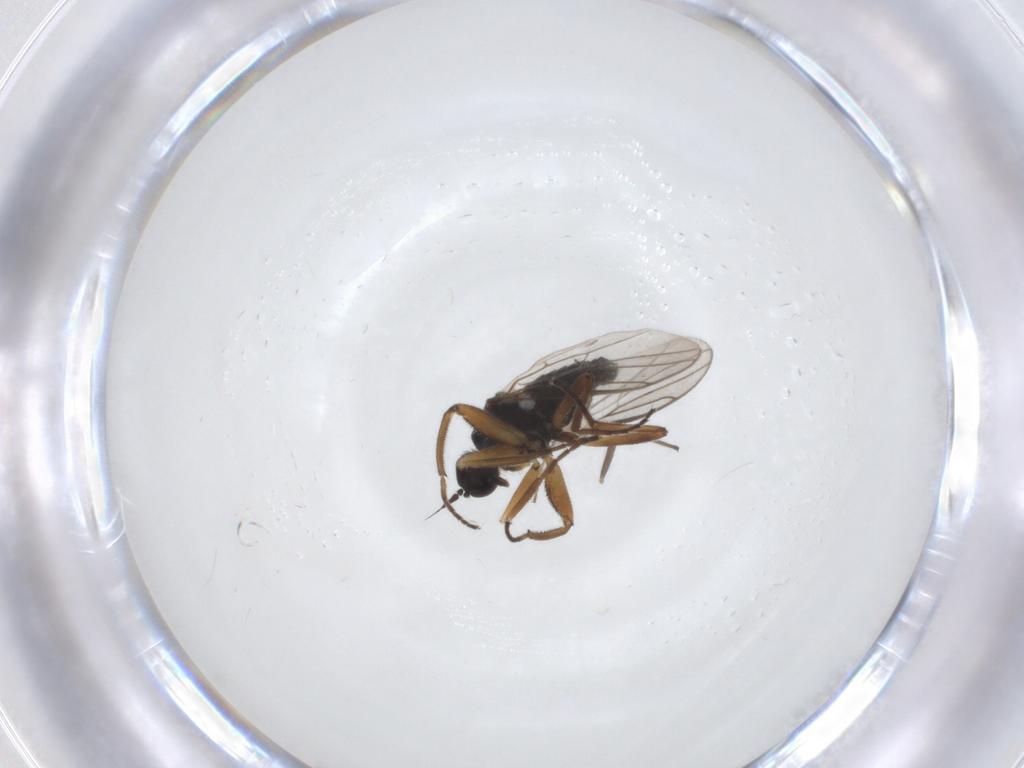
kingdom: Animalia
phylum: Arthropoda
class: Insecta
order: Diptera
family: Hybotidae
